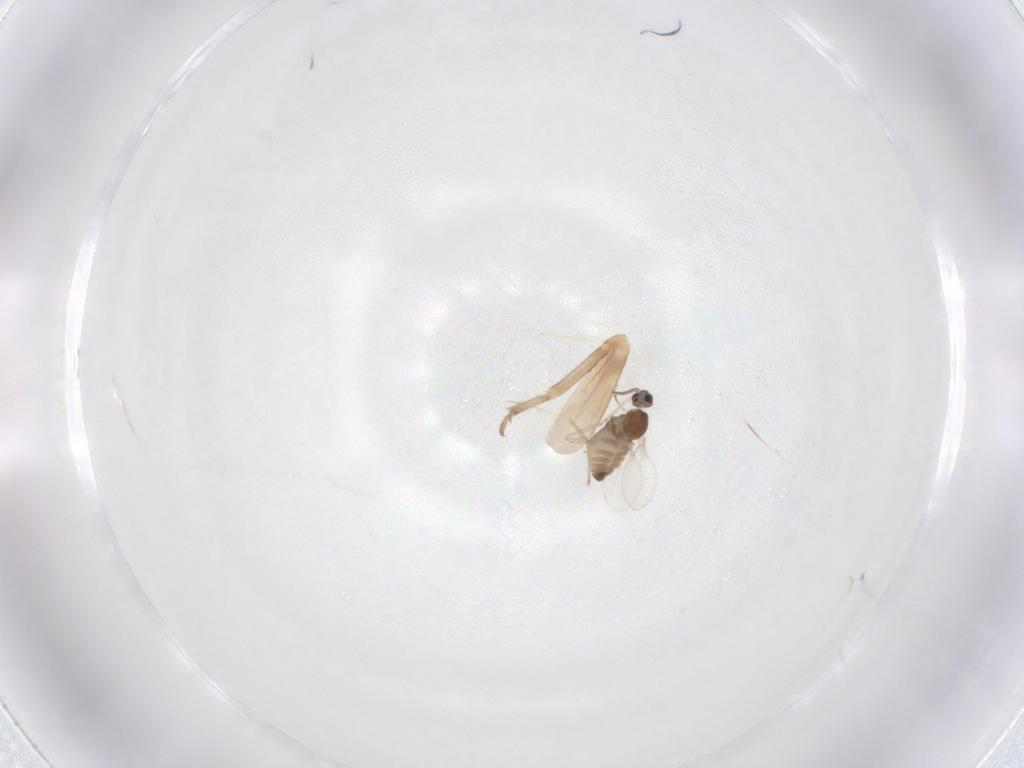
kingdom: Animalia
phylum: Arthropoda
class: Insecta
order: Diptera
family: Cecidomyiidae
